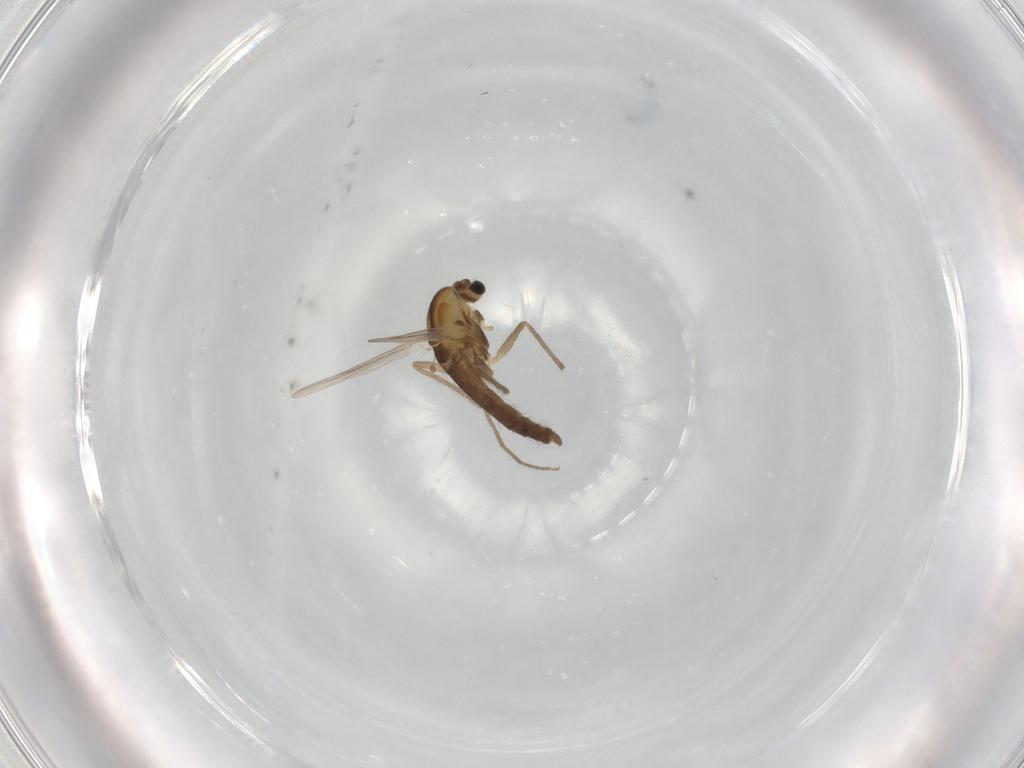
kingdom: Animalia
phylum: Arthropoda
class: Insecta
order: Diptera
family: Chironomidae
